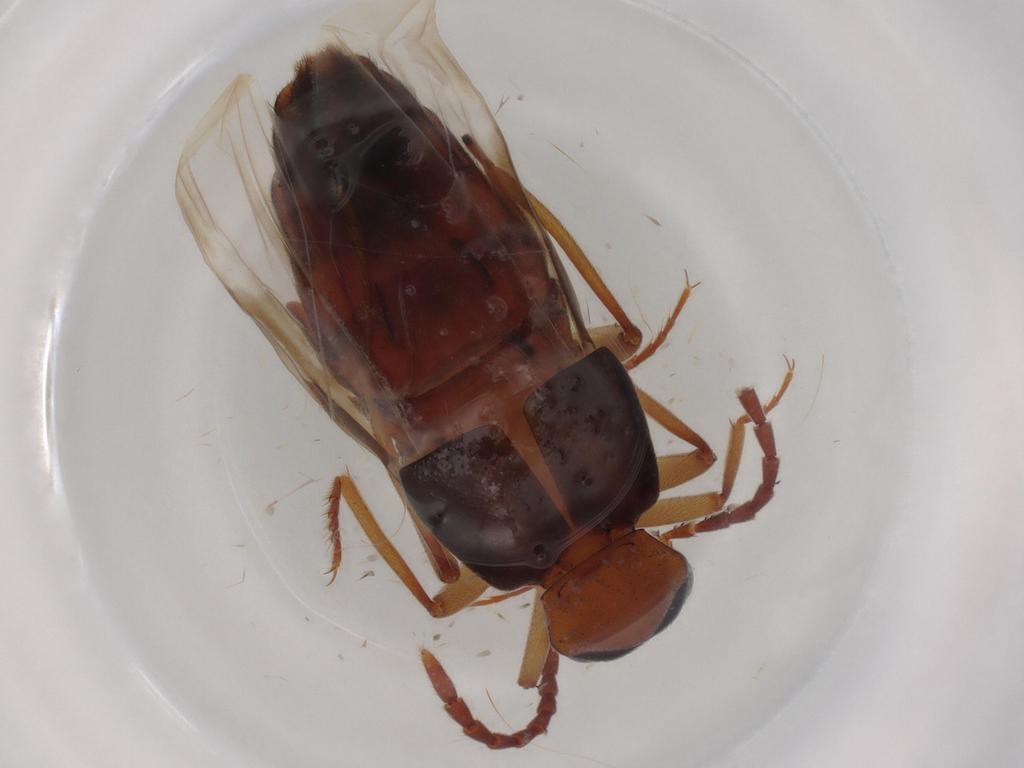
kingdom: Animalia
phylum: Arthropoda
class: Insecta
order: Coleoptera
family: Staphylinidae
